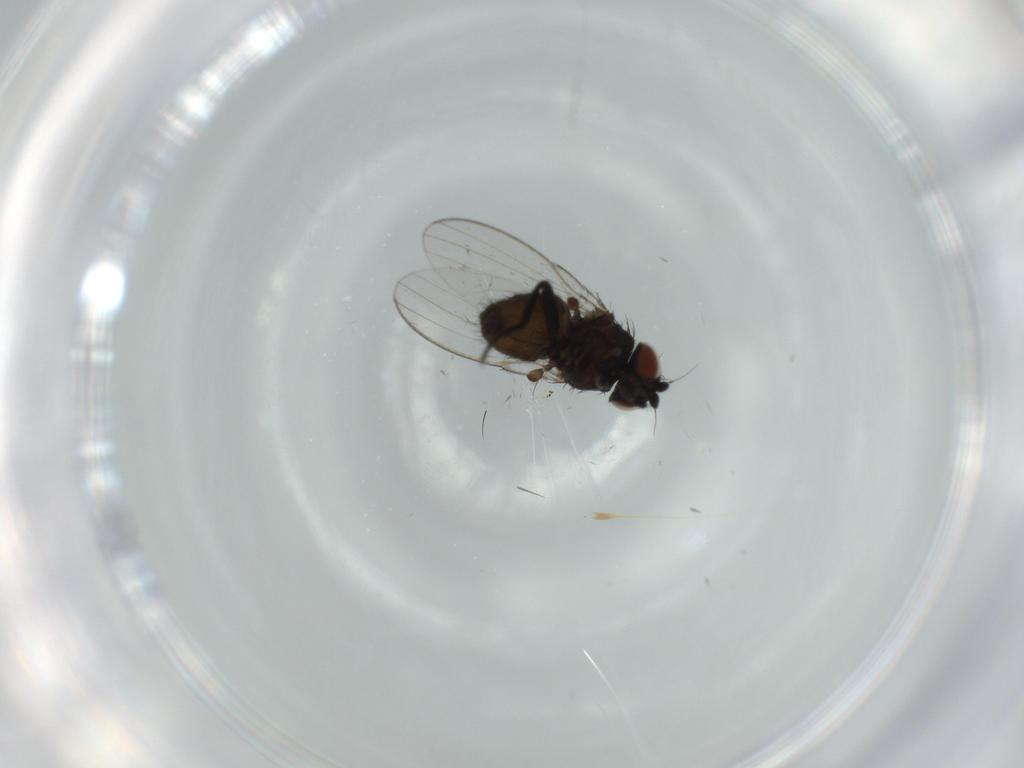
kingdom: Animalia
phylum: Arthropoda
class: Insecta
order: Diptera
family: Milichiidae
